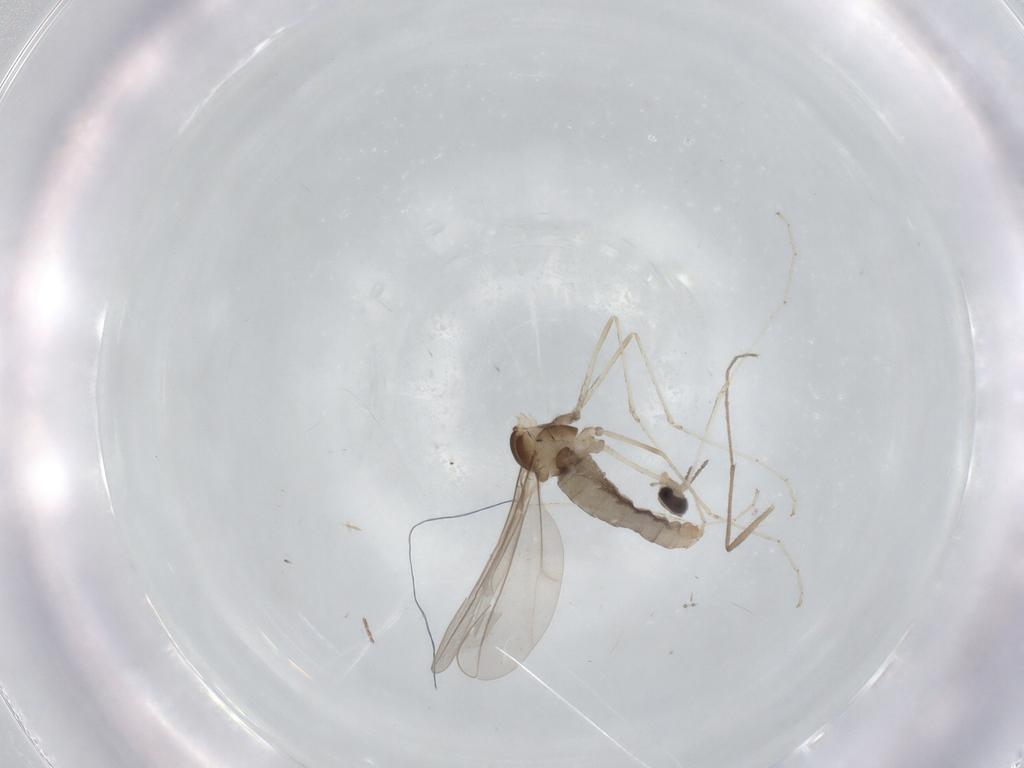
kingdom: Animalia
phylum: Arthropoda
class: Insecta
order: Diptera
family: Cecidomyiidae
